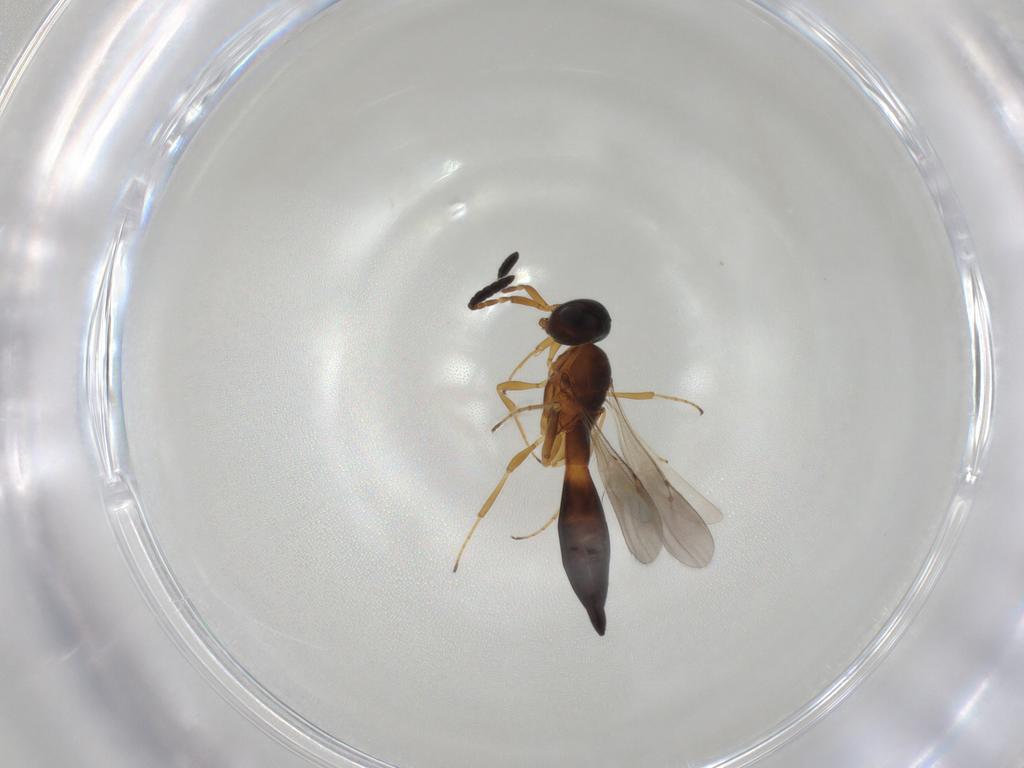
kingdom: Animalia
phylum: Arthropoda
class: Insecta
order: Hymenoptera
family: Scelionidae
